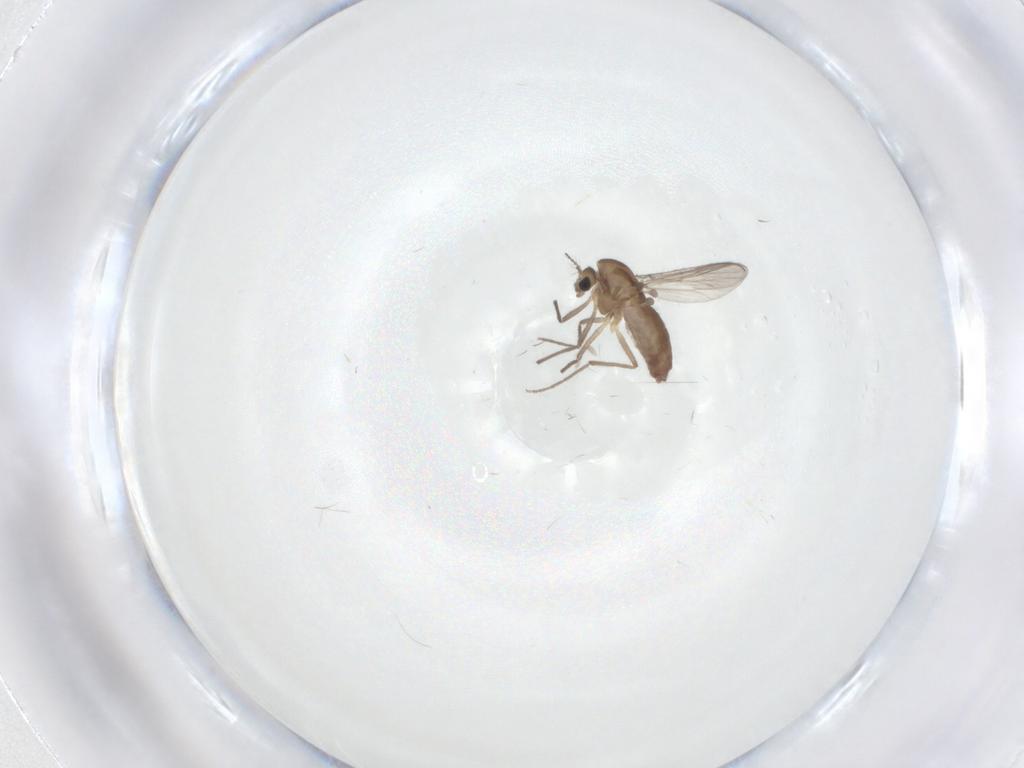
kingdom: Animalia
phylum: Arthropoda
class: Insecta
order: Diptera
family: Chironomidae
